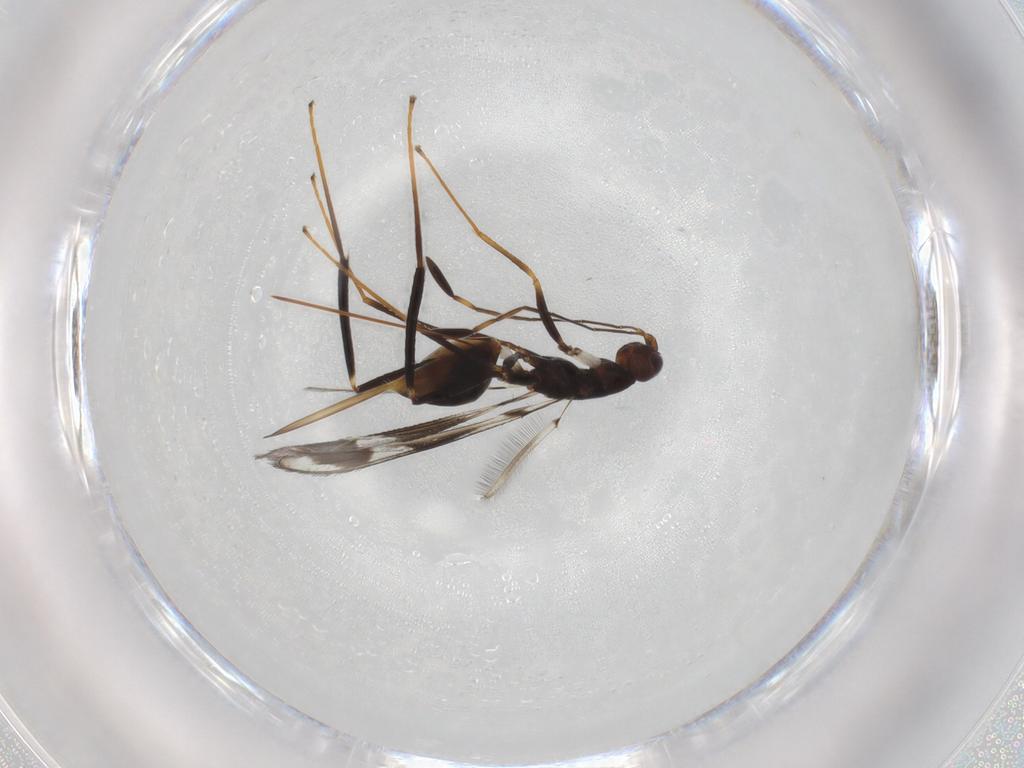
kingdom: Animalia
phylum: Arthropoda
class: Insecta
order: Hymenoptera
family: Mymaridae
